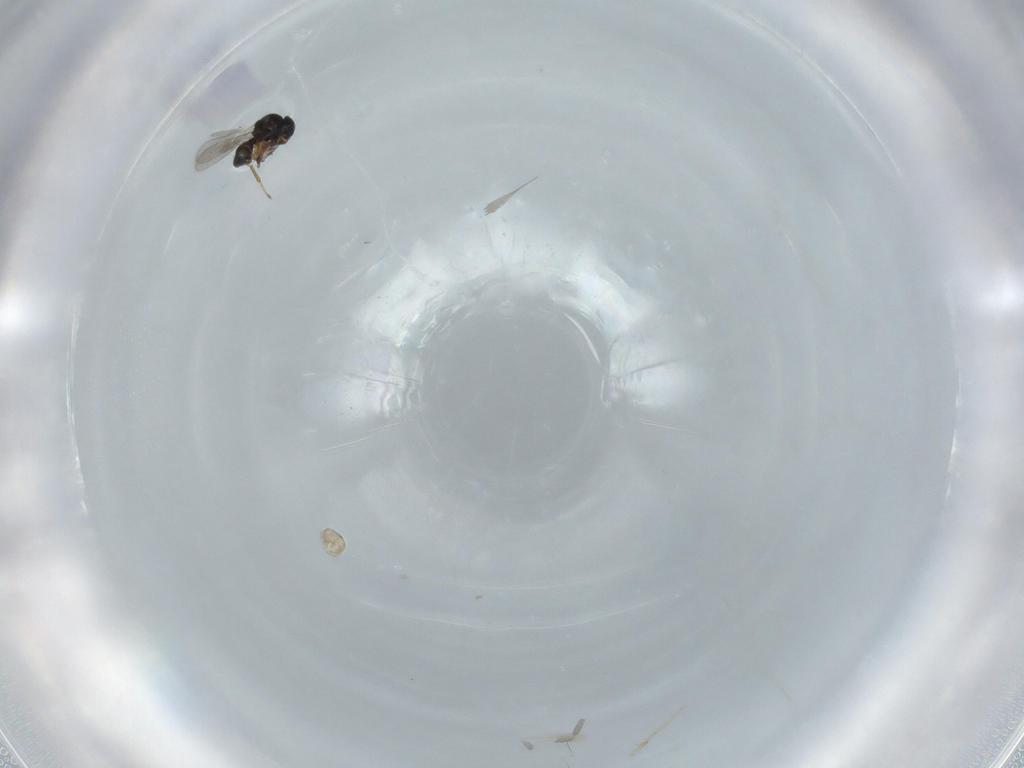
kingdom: Animalia
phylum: Arthropoda
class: Insecta
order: Hymenoptera
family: Platygastridae
